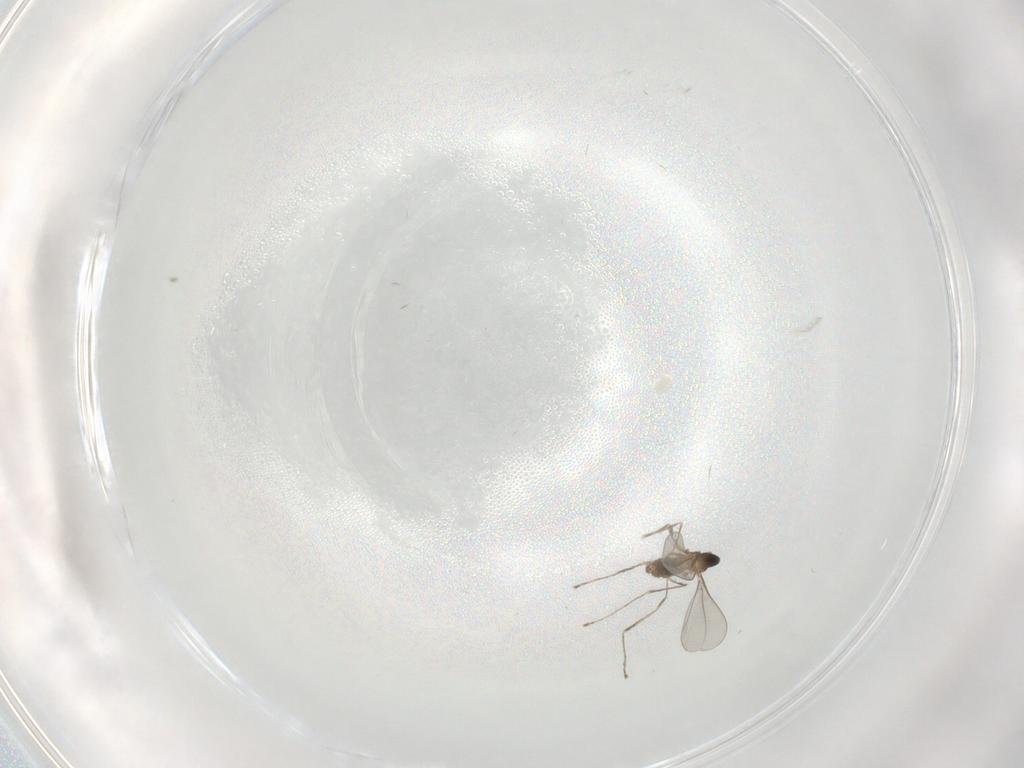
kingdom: Animalia
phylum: Arthropoda
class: Insecta
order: Diptera
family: Cecidomyiidae
